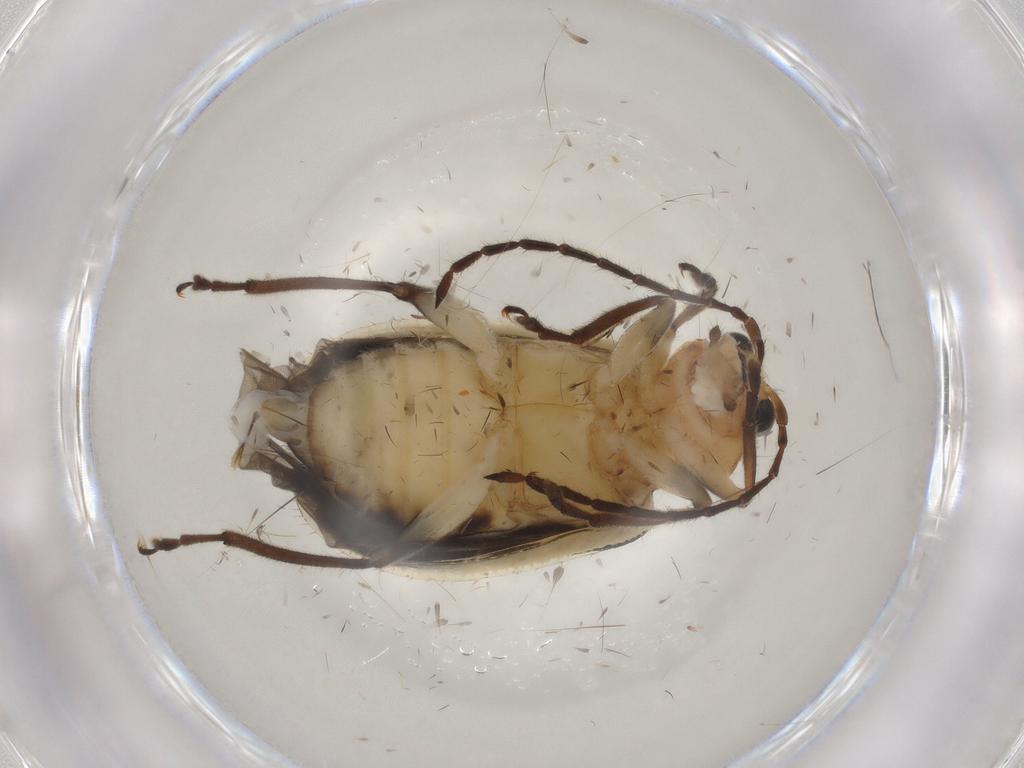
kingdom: Animalia
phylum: Arthropoda
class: Insecta
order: Coleoptera
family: Chrysomelidae
